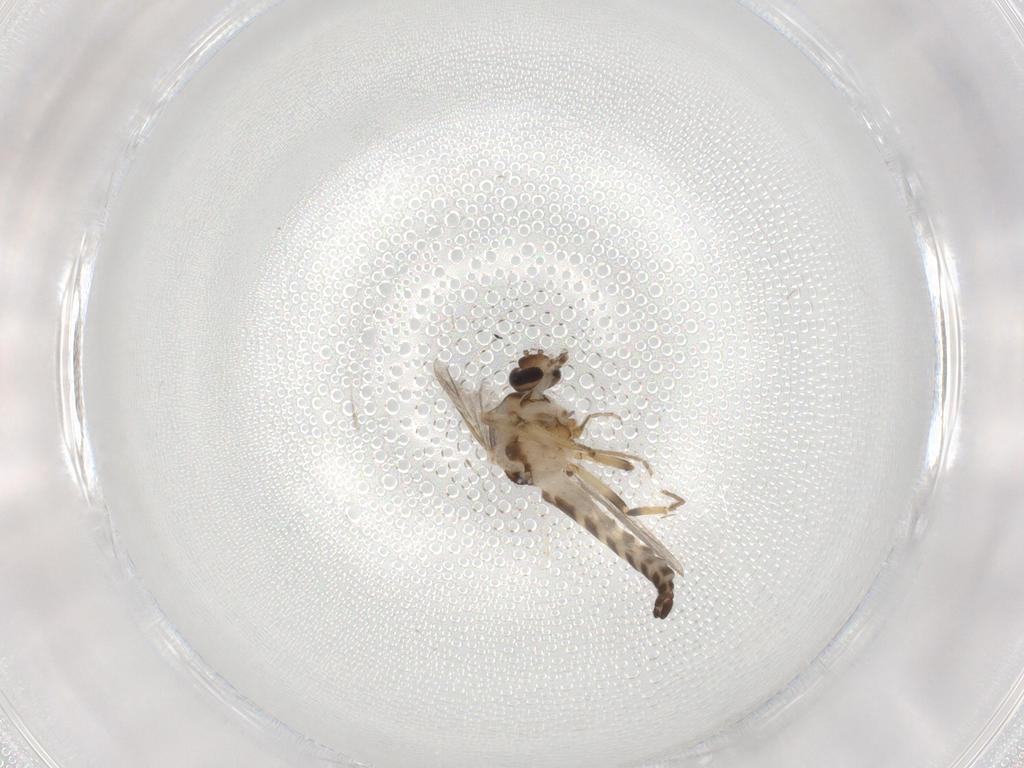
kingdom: Animalia
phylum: Arthropoda
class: Insecta
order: Diptera
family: Ceratopogonidae
